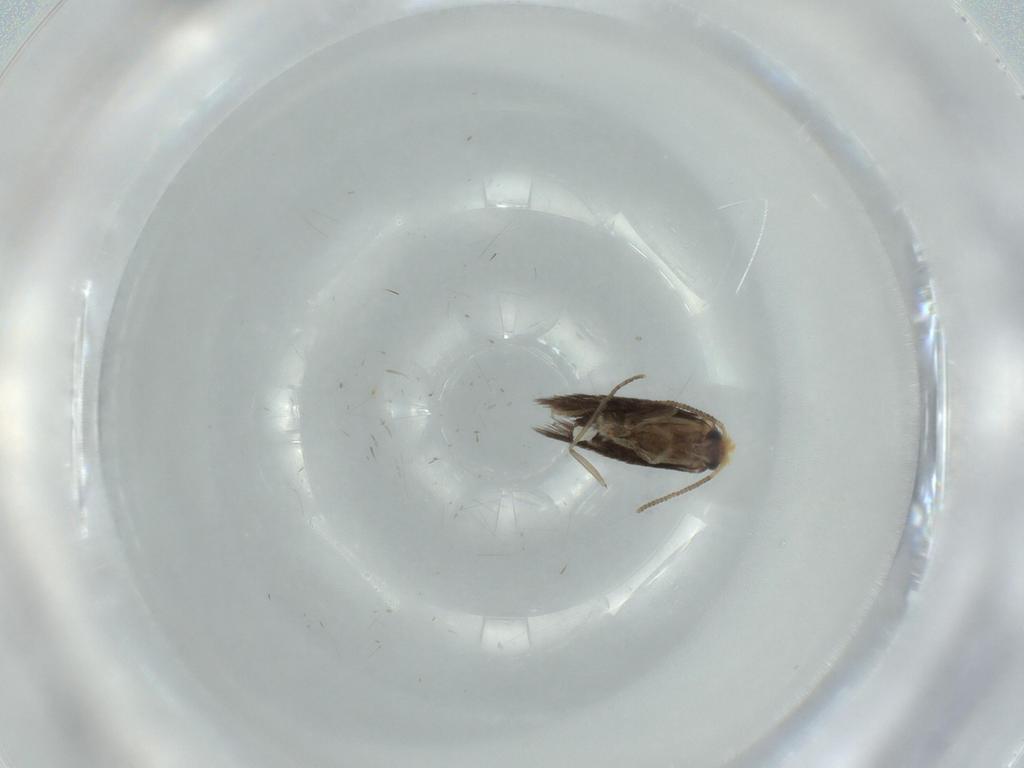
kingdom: Animalia
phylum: Arthropoda
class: Insecta
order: Lepidoptera
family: Nepticulidae
